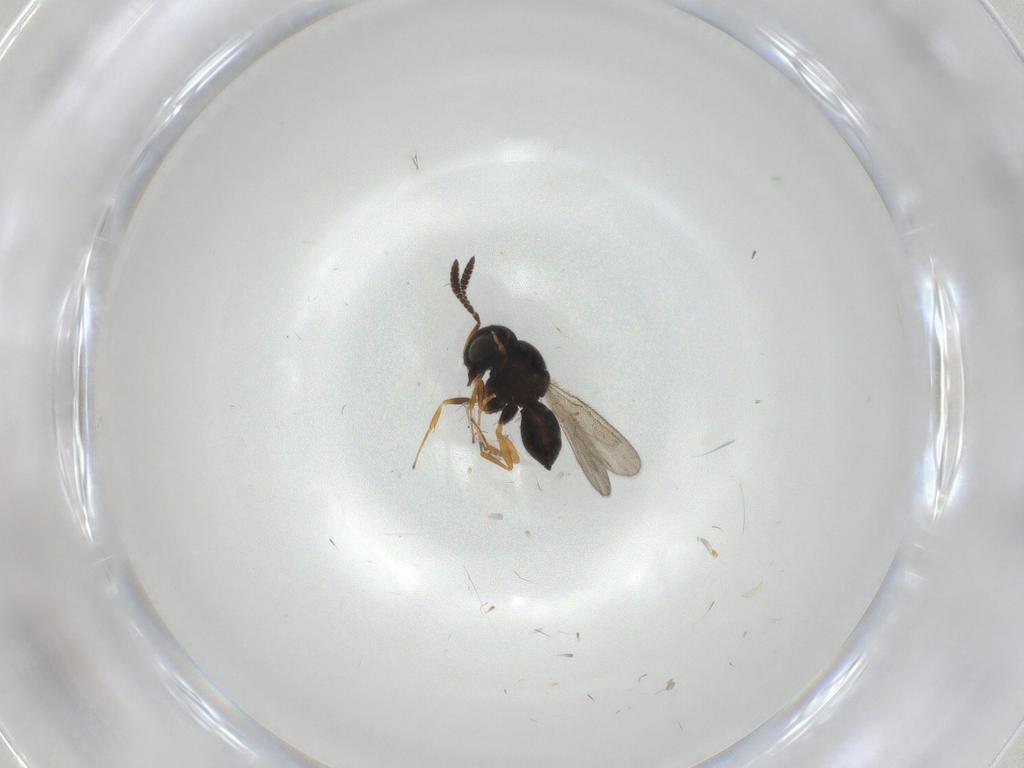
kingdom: Animalia
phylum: Arthropoda
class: Insecta
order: Hymenoptera
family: Scelionidae
